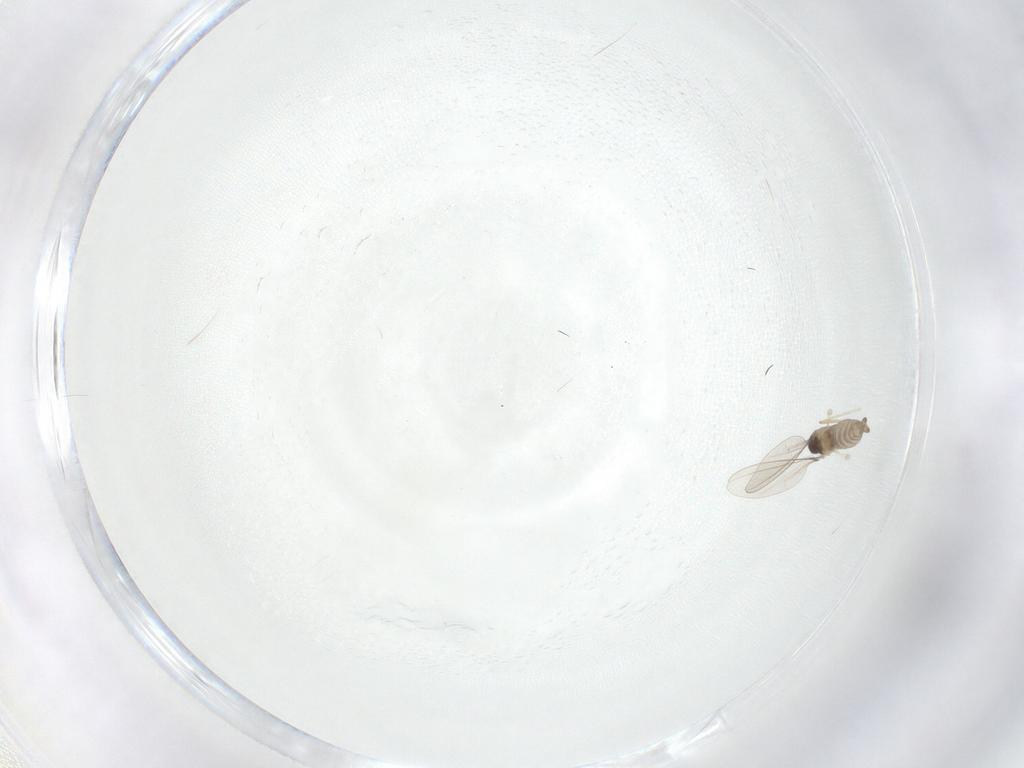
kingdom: Animalia
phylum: Arthropoda
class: Insecta
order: Diptera
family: Cecidomyiidae
